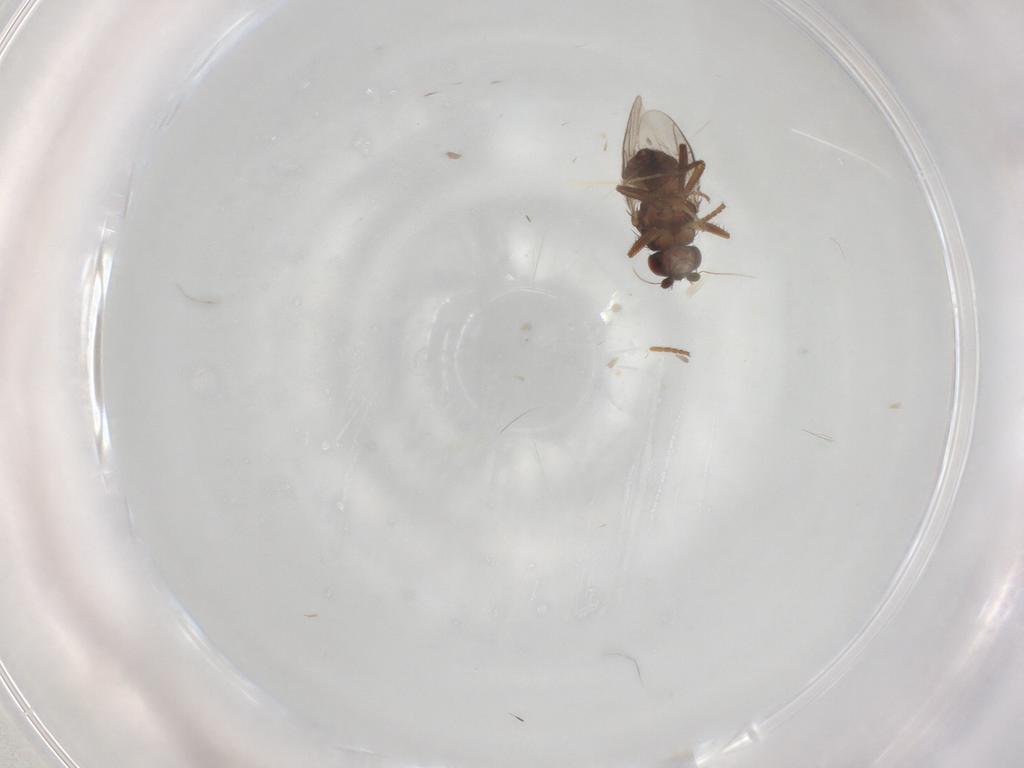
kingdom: Animalia
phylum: Arthropoda
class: Insecta
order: Diptera
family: Sphaeroceridae
